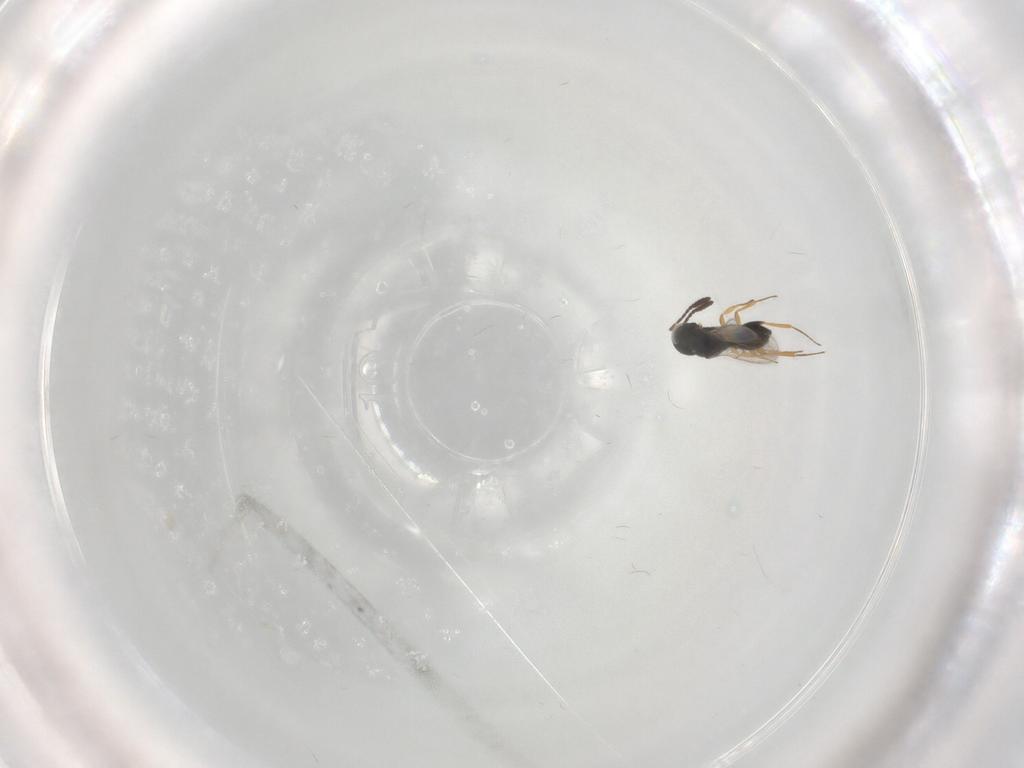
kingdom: Animalia
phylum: Arthropoda
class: Insecta
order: Hymenoptera
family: Scelionidae
